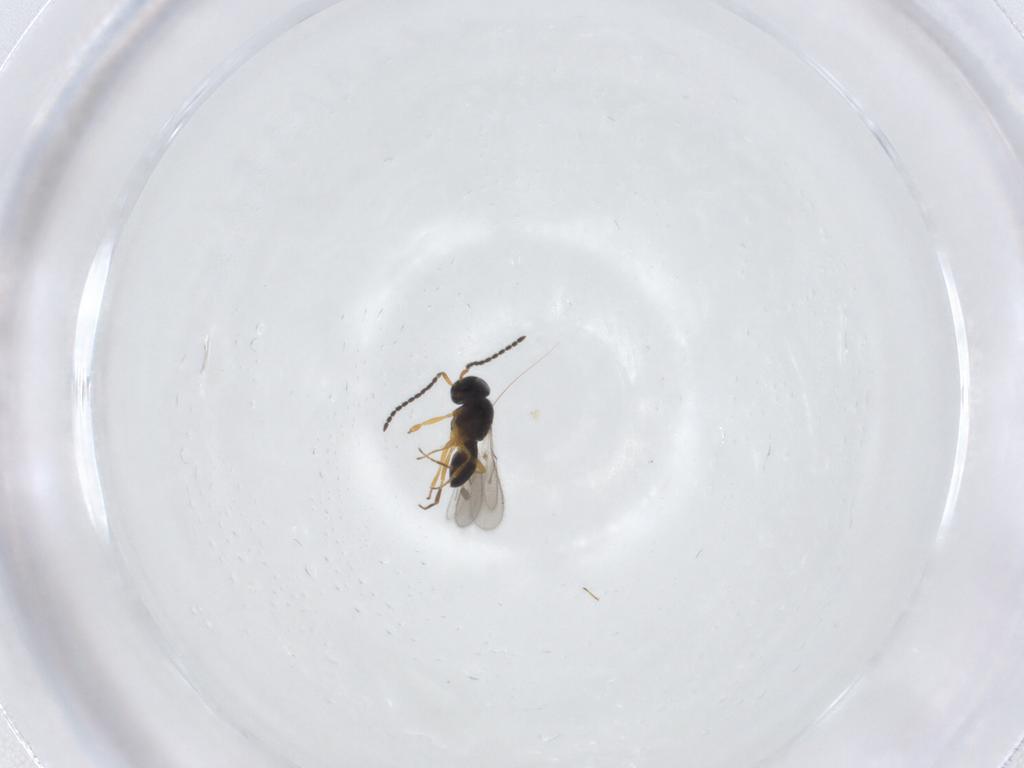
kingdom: Animalia
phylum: Arthropoda
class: Insecta
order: Hymenoptera
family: Scelionidae
